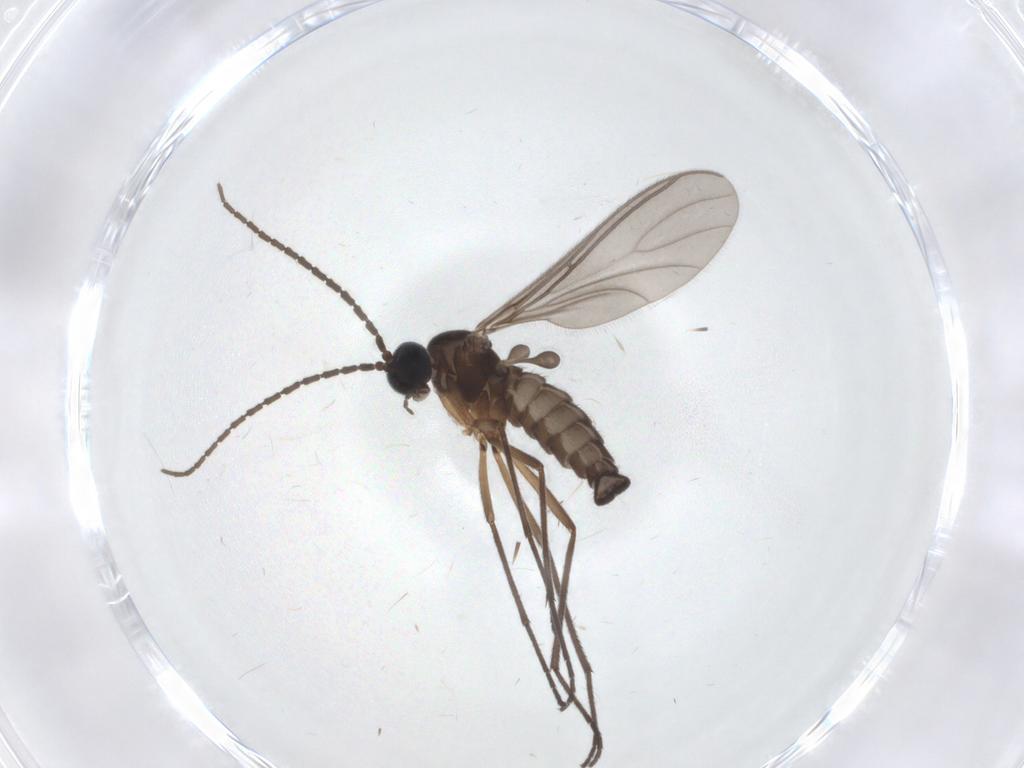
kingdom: Animalia
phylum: Arthropoda
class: Insecta
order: Diptera
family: Sciaridae
